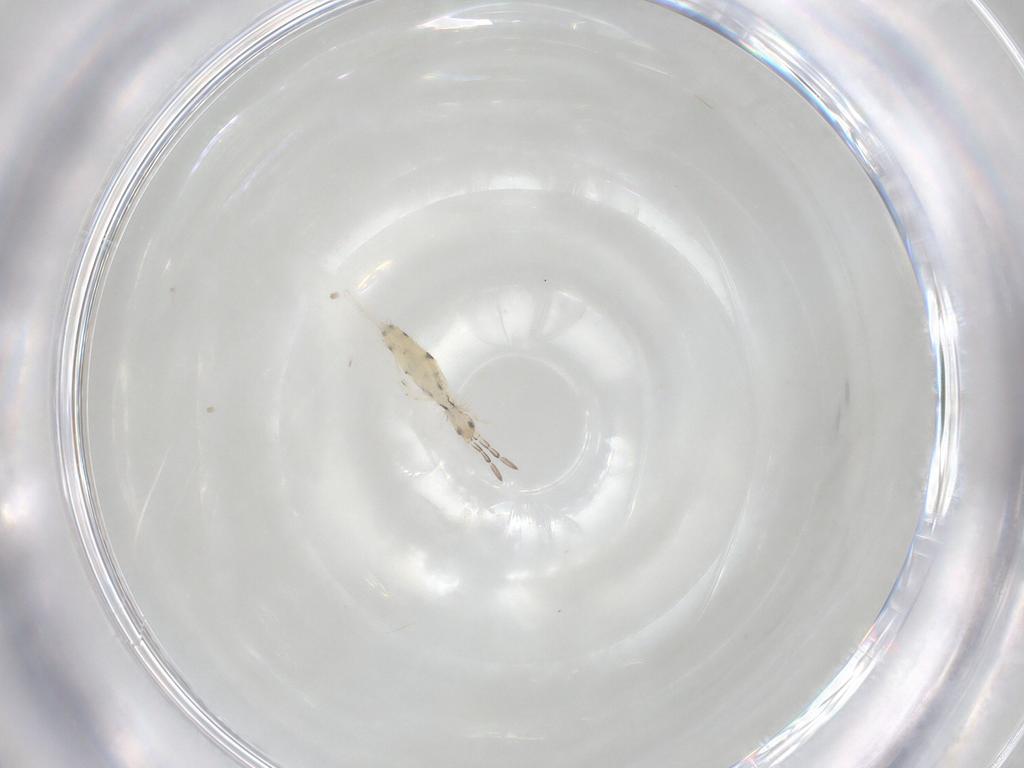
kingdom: Animalia
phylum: Arthropoda
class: Collembola
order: Entomobryomorpha
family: Entomobryidae
